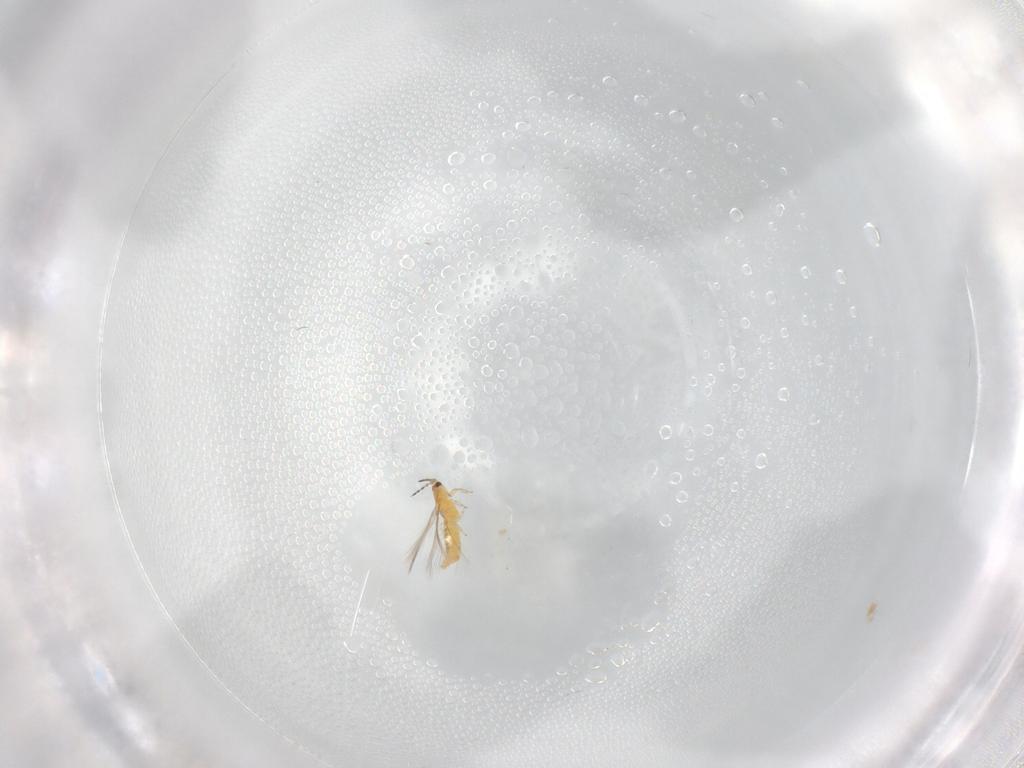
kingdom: Animalia
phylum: Arthropoda
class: Insecta
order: Thysanoptera
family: Thripidae
